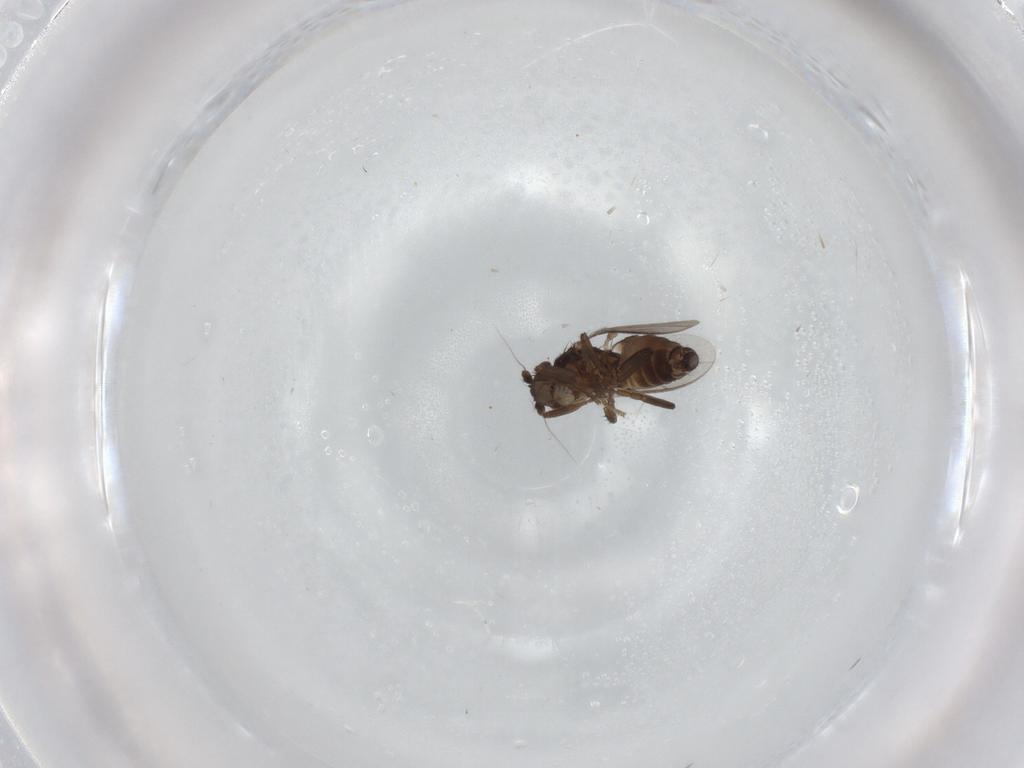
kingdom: Animalia
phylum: Arthropoda
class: Insecta
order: Diptera
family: Sphaeroceridae
